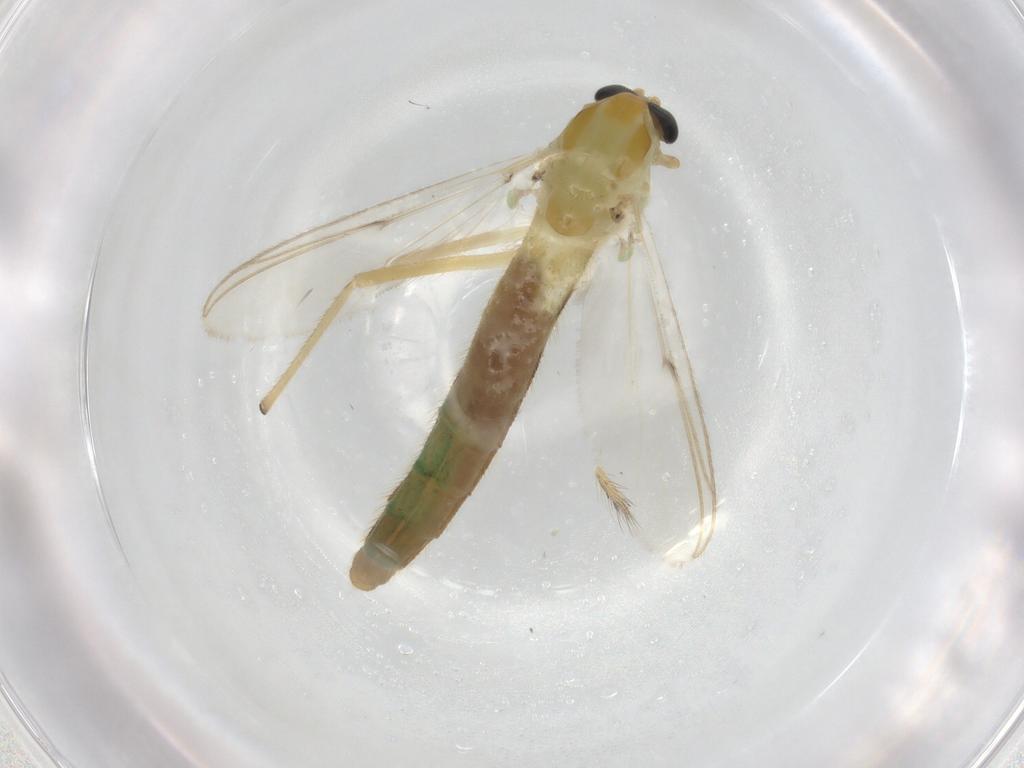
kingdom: Animalia
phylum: Arthropoda
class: Insecta
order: Diptera
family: Chironomidae
